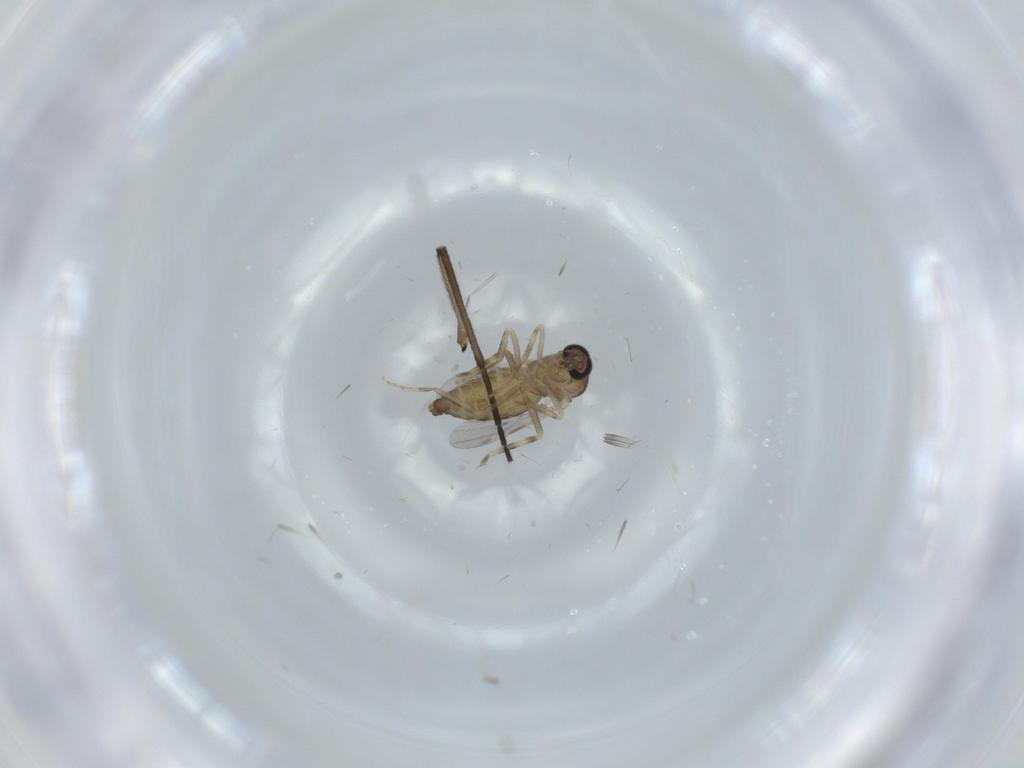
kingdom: Animalia
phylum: Arthropoda
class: Insecta
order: Diptera
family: Ceratopogonidae
